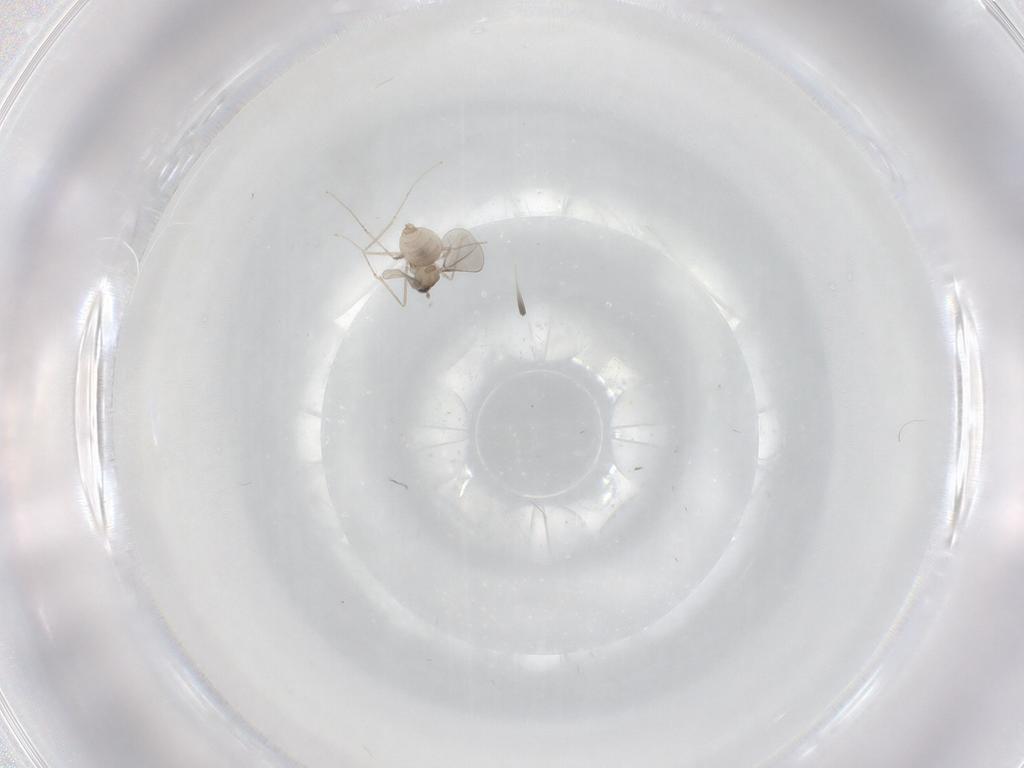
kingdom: Animalia
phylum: Arthropoda
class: Insecta
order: Diptera
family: Cecidomyiidae
